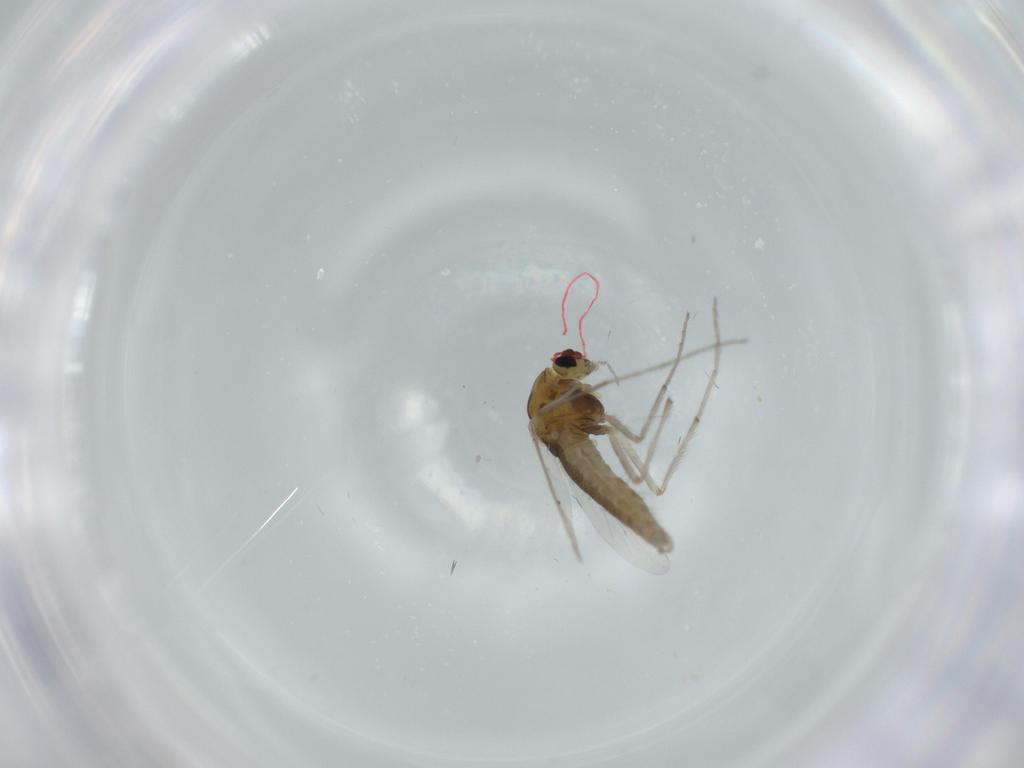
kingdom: Animalia
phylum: Arthropoda
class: Insecta
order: Diptera
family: Chironomidae
